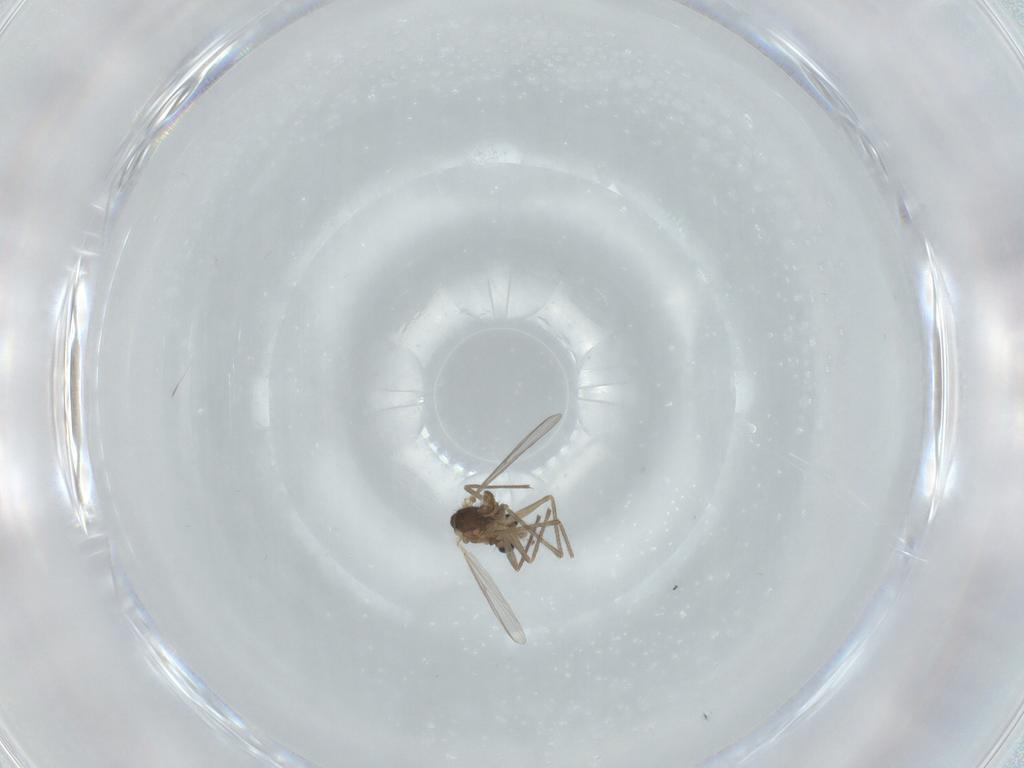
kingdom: Animalia
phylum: Arthropoda
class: Insecta
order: Diptera
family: Chironomidae
